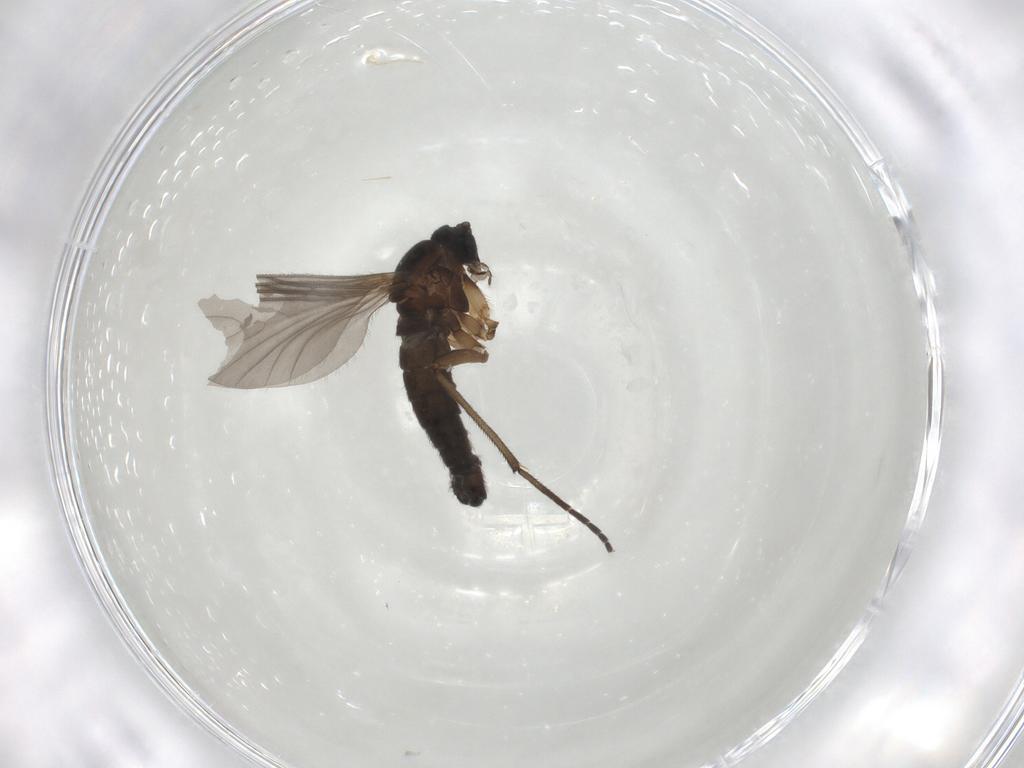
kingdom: Animalia
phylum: Arthropoda
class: Insecta
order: Diptera
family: Sciaridae
